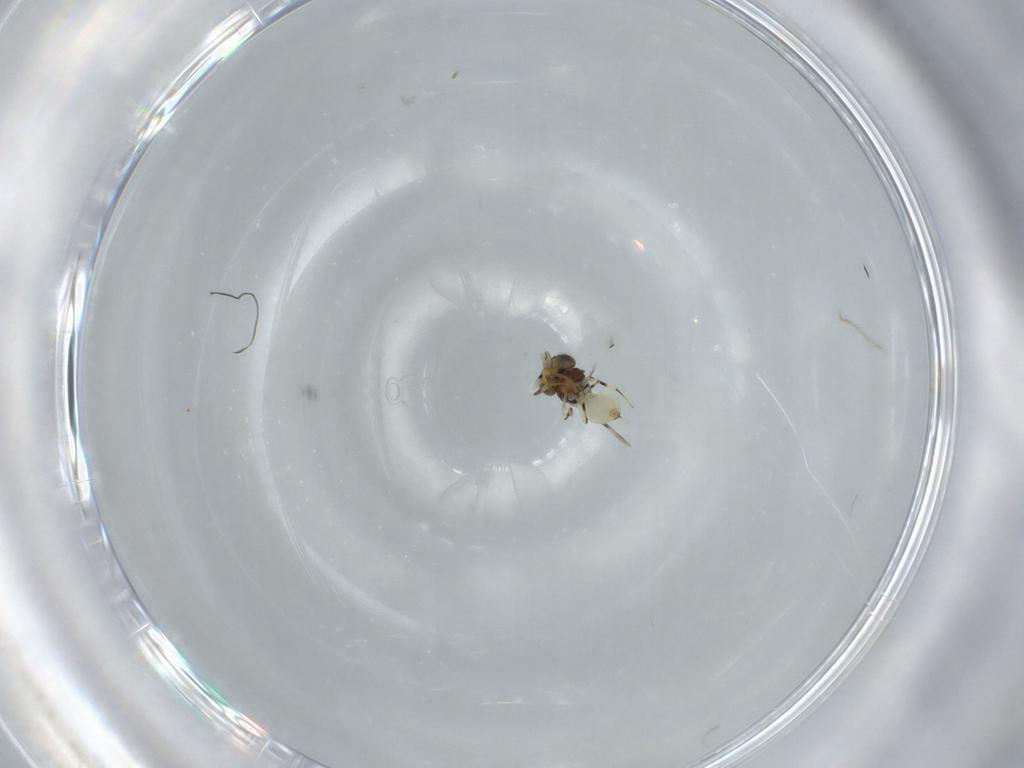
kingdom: Animalia
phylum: Arthropoda
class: Insecta
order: Hymenoptera
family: Scelionidae
